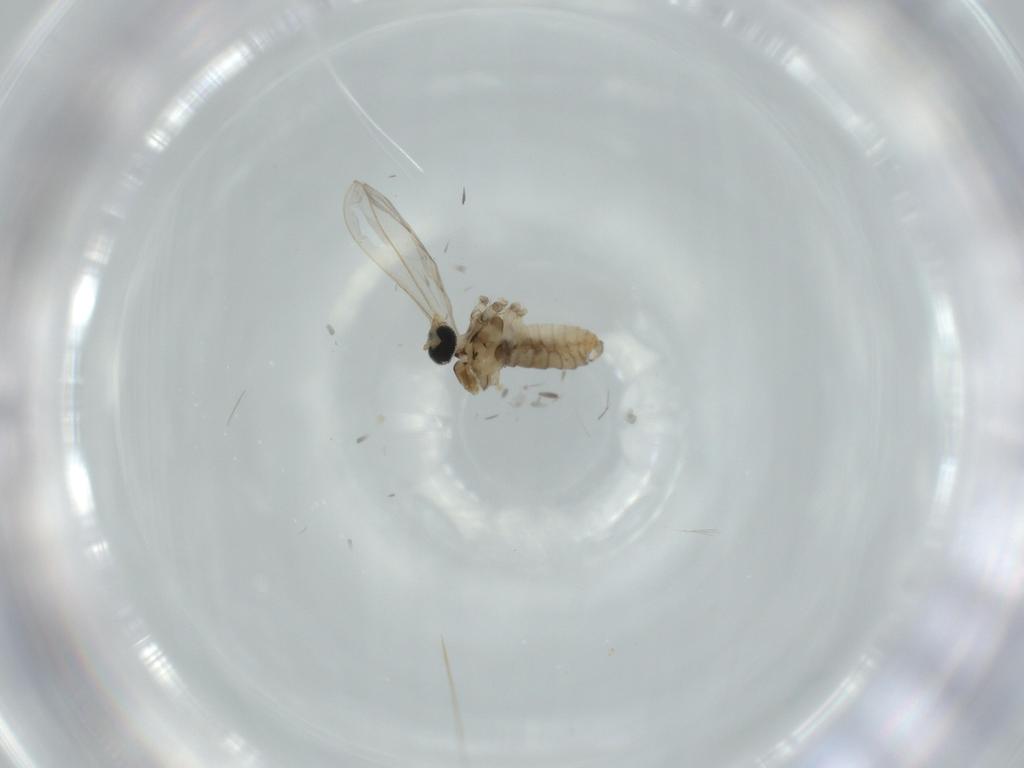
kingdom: Animalia
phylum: Arthropoda
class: Insecta
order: Diptera
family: Cecidomyiidae
